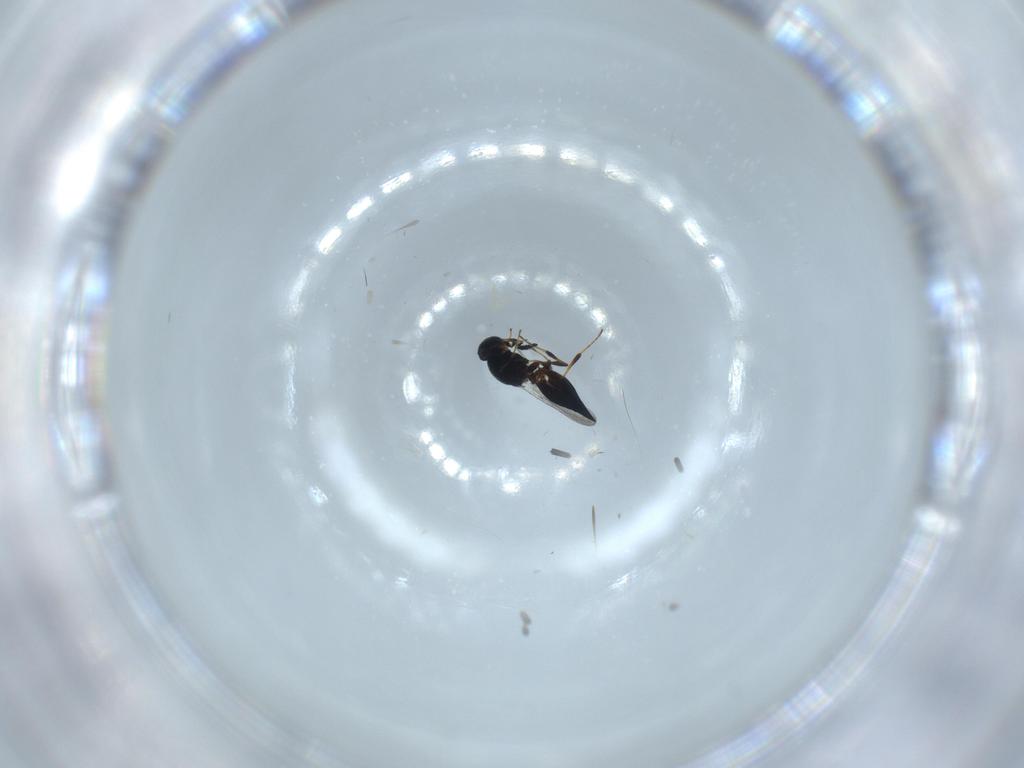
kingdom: Animalia
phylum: Arthropoda
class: Insecta
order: Hymenoptera
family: Platygastridae
